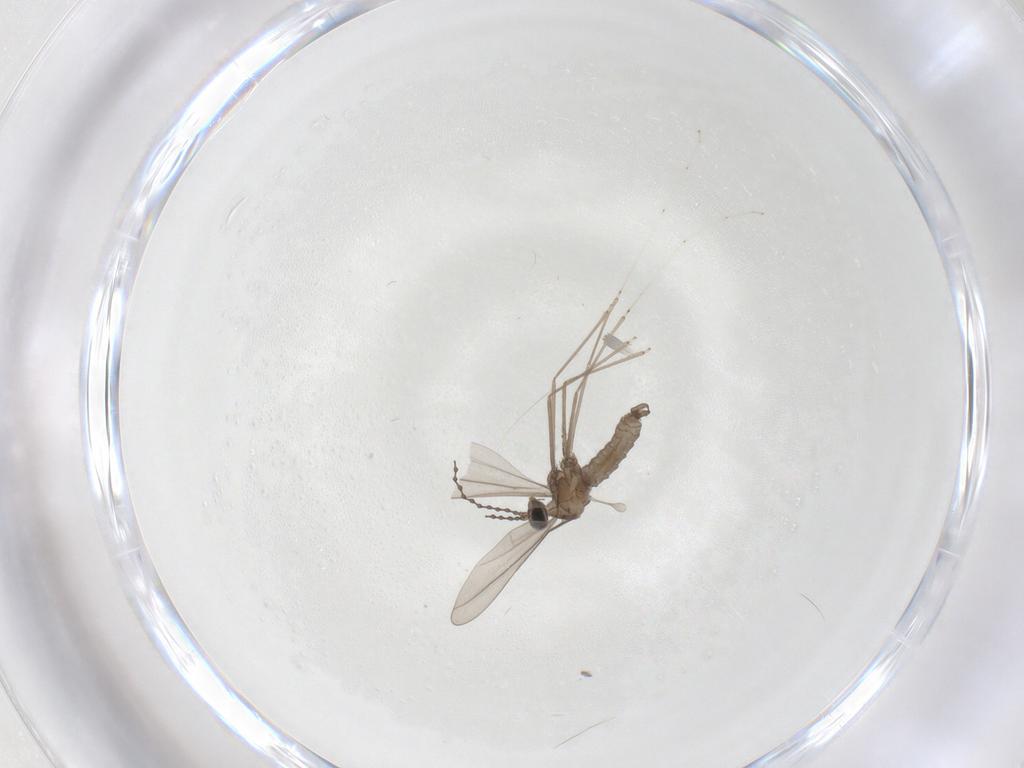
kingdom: Animalia
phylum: Arthropoda
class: Insecta
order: Diptera
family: Cecidomyiidae
